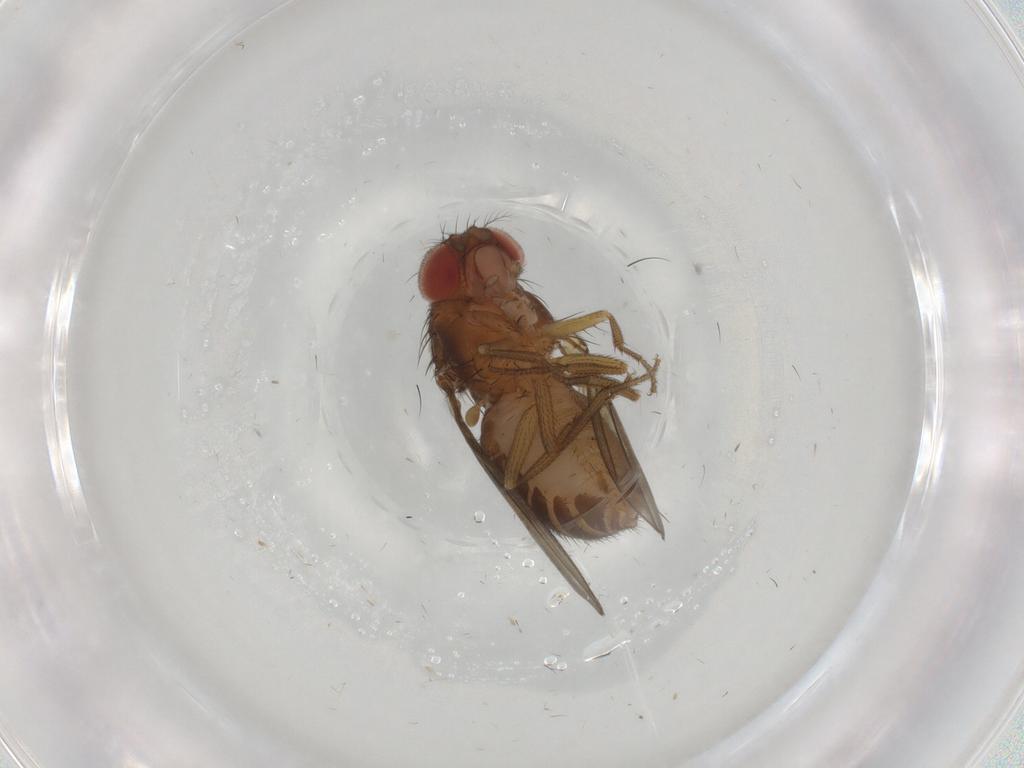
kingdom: Animalia
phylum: Arthropoda
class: Insecta
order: Diptera
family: Drosophilidae
